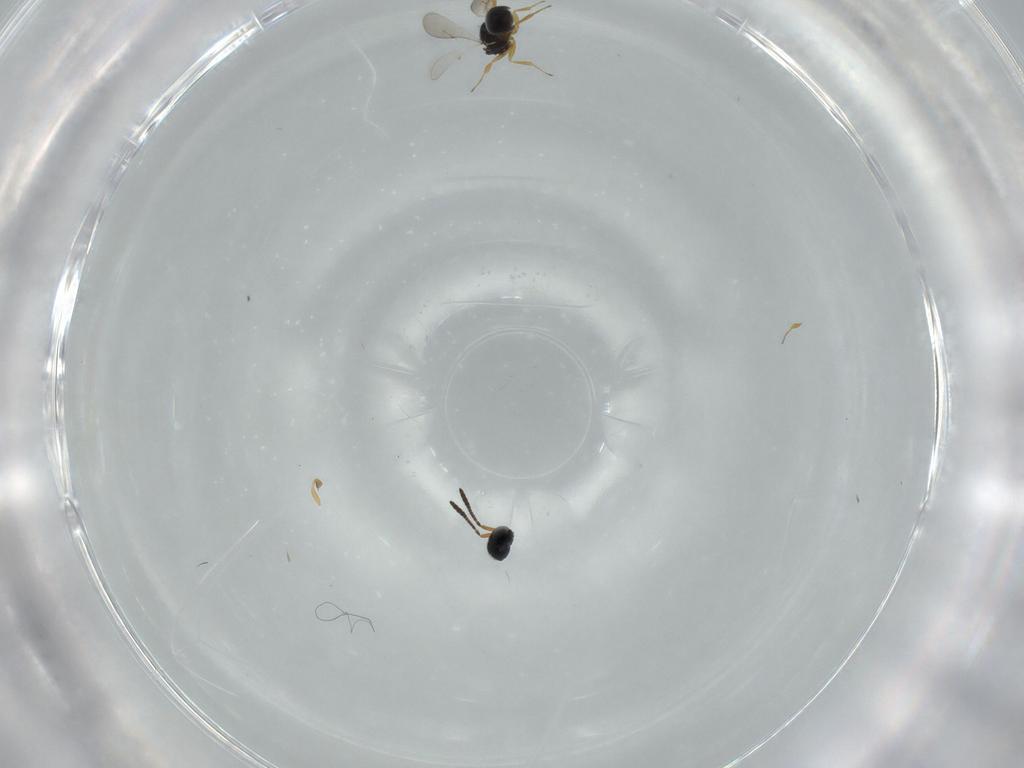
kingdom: Animalia
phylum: Arthropoda
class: Insecta
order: Hymenoptera
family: Scelionidae
